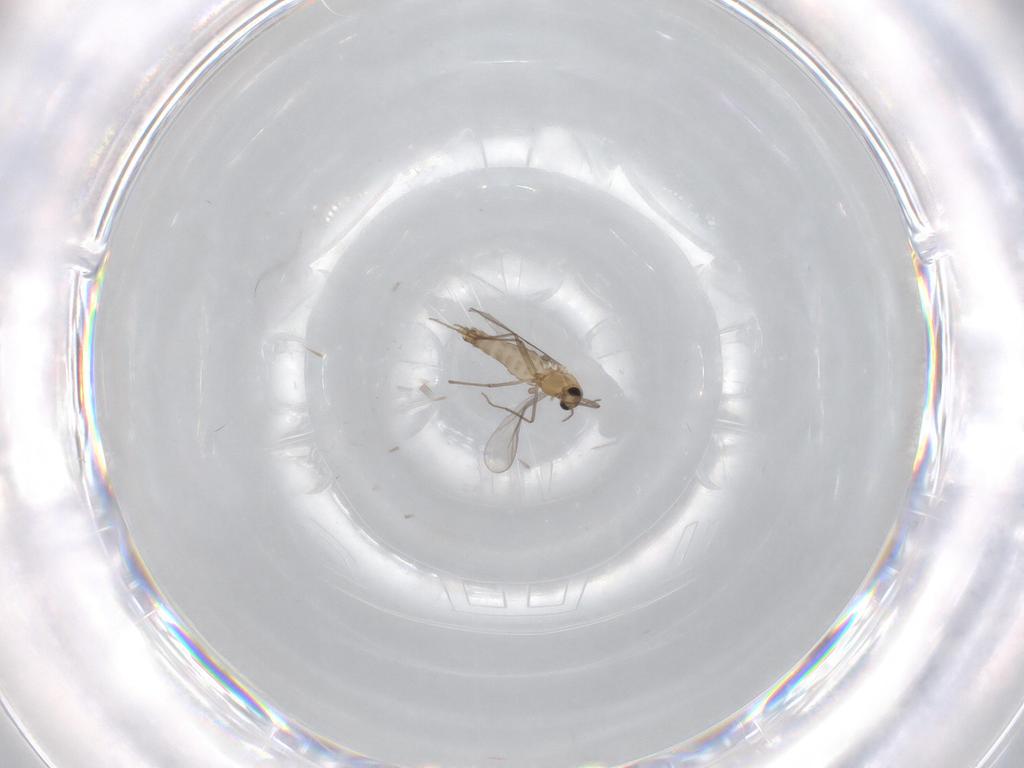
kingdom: Animalia
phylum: Arthropoda
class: Insecta
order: Diptera
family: Chironomidae
